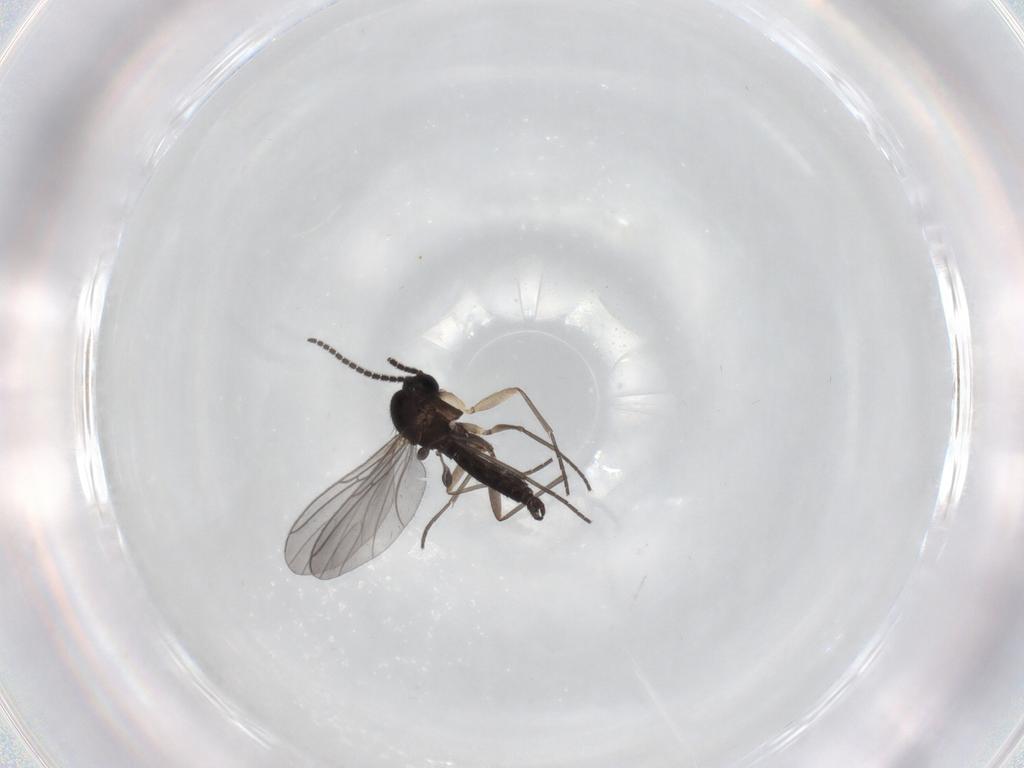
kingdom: Animalia
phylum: Arthropoda
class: Insecta
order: Diptera
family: Sciaridae
